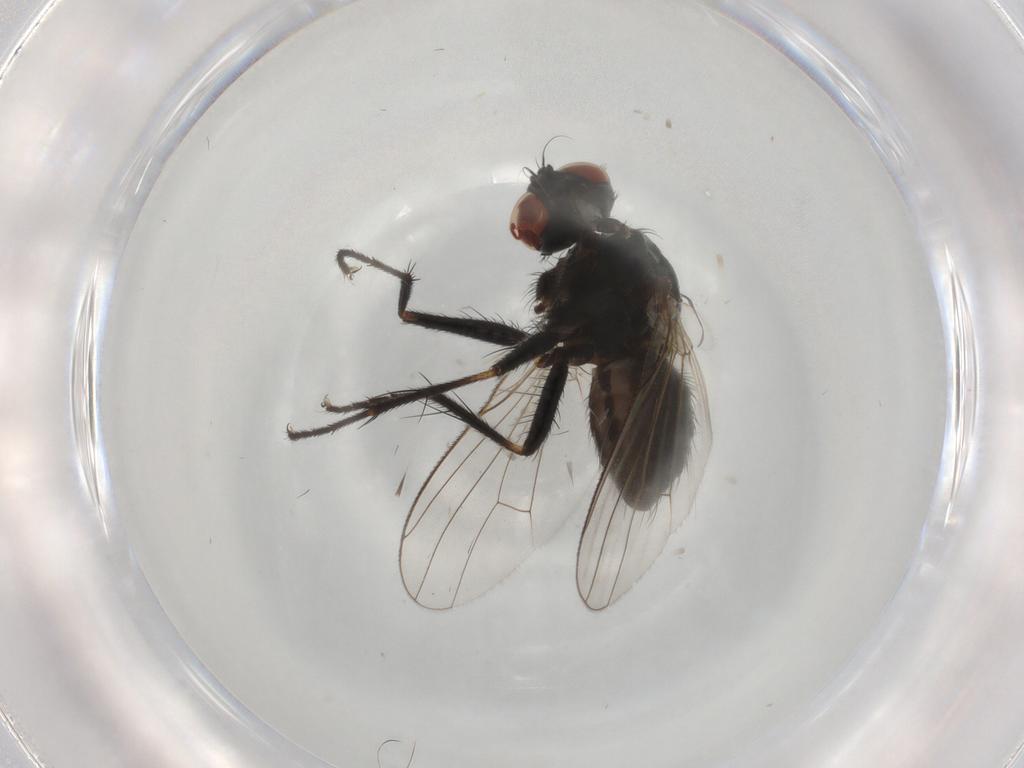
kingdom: Animalia
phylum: Arthropoda
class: Insecta
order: Diptera
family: Muscidae
